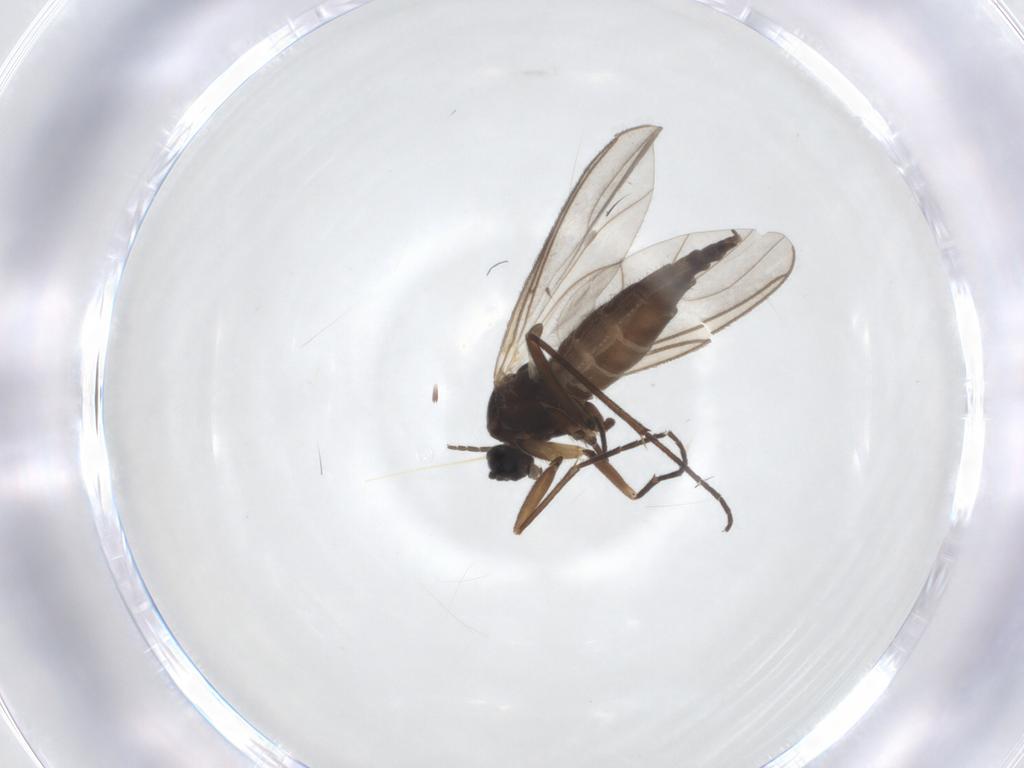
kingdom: Animalia
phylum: Arthropoda
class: Insecta
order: Diptera
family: Sciaridae
